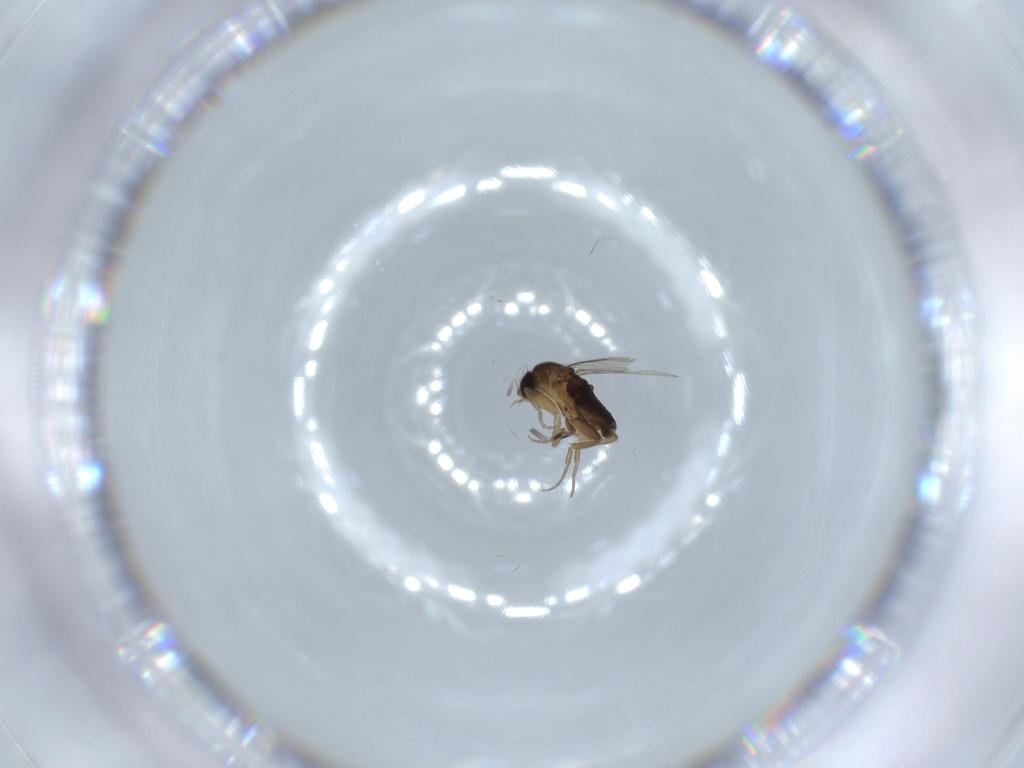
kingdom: Animalia
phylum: Arthropoda
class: Insecta
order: Diptera
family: Phoridae
